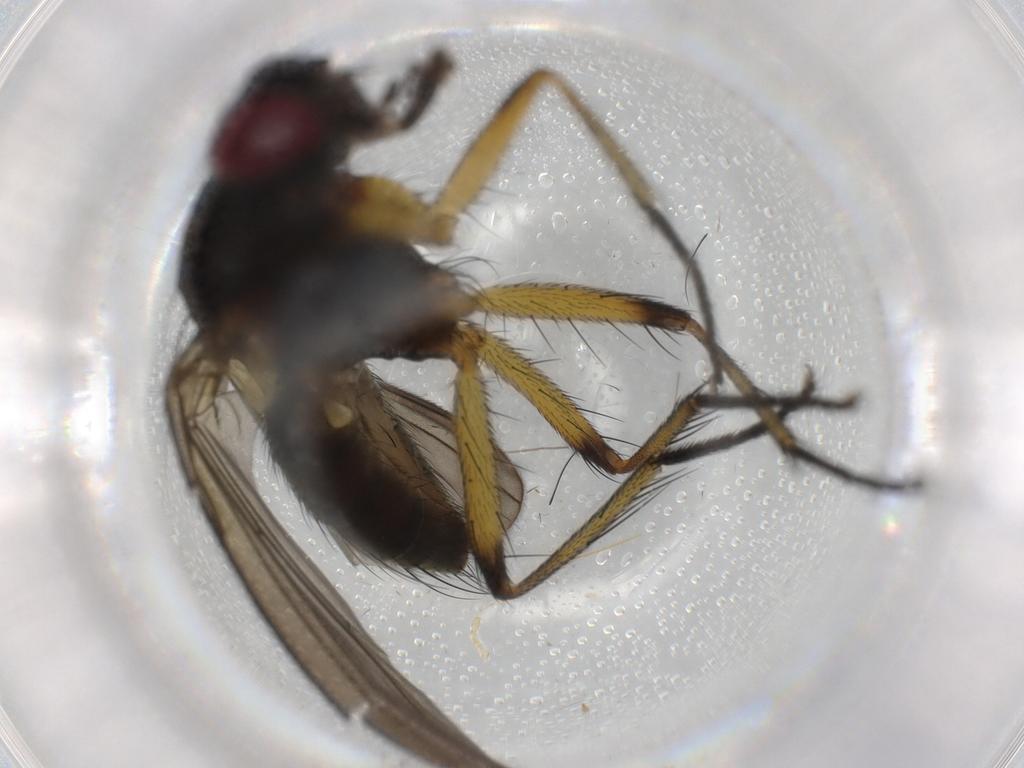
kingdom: Animalia
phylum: Arthropoda
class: Insecta
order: Diptera
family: Muscidae
